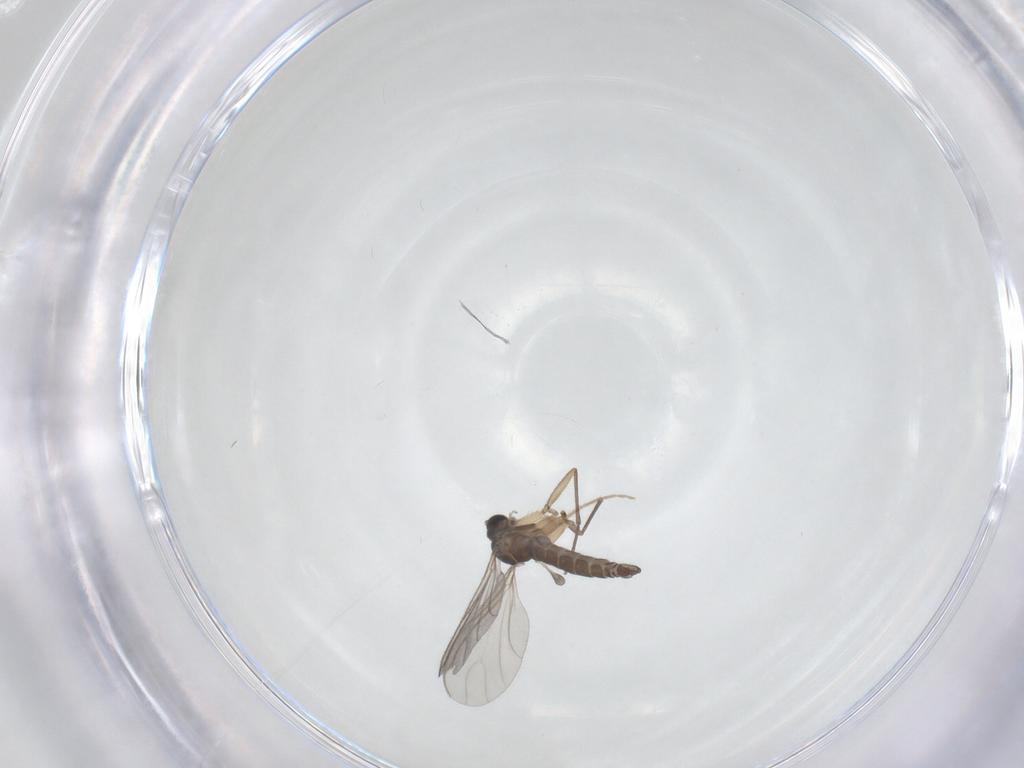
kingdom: Animalia
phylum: Arthropoda
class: Insecta
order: Diptera
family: Sciaridae
